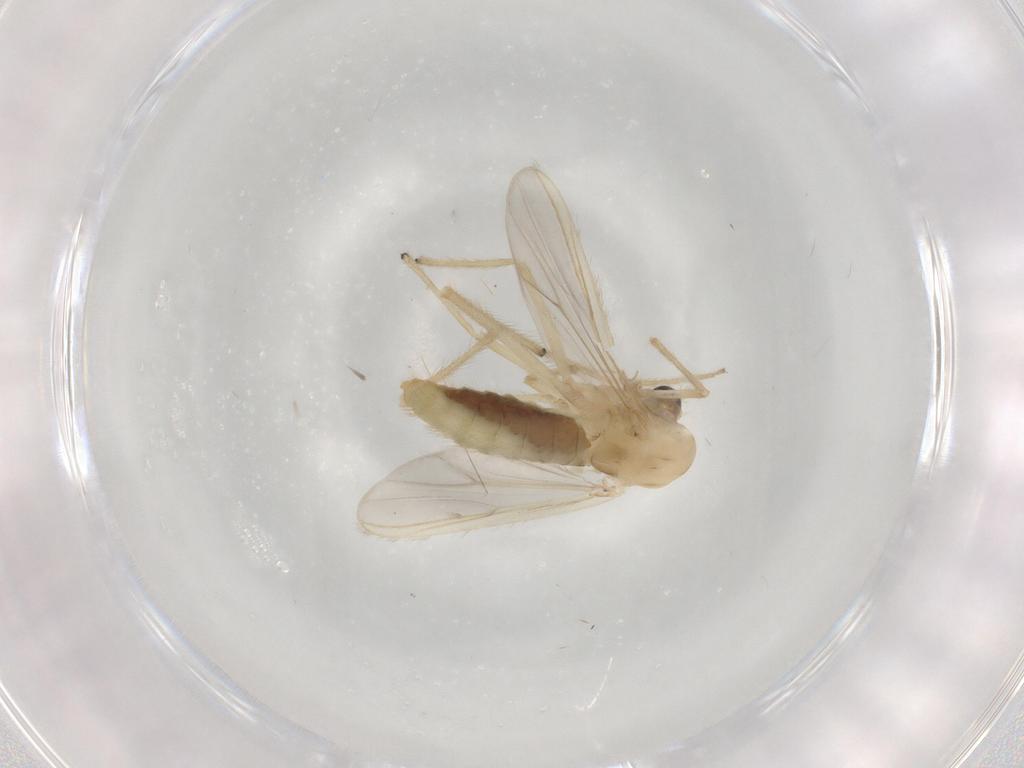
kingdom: Animalia
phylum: Arthropoda
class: Insecta
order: Diptera
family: Chironomidae
